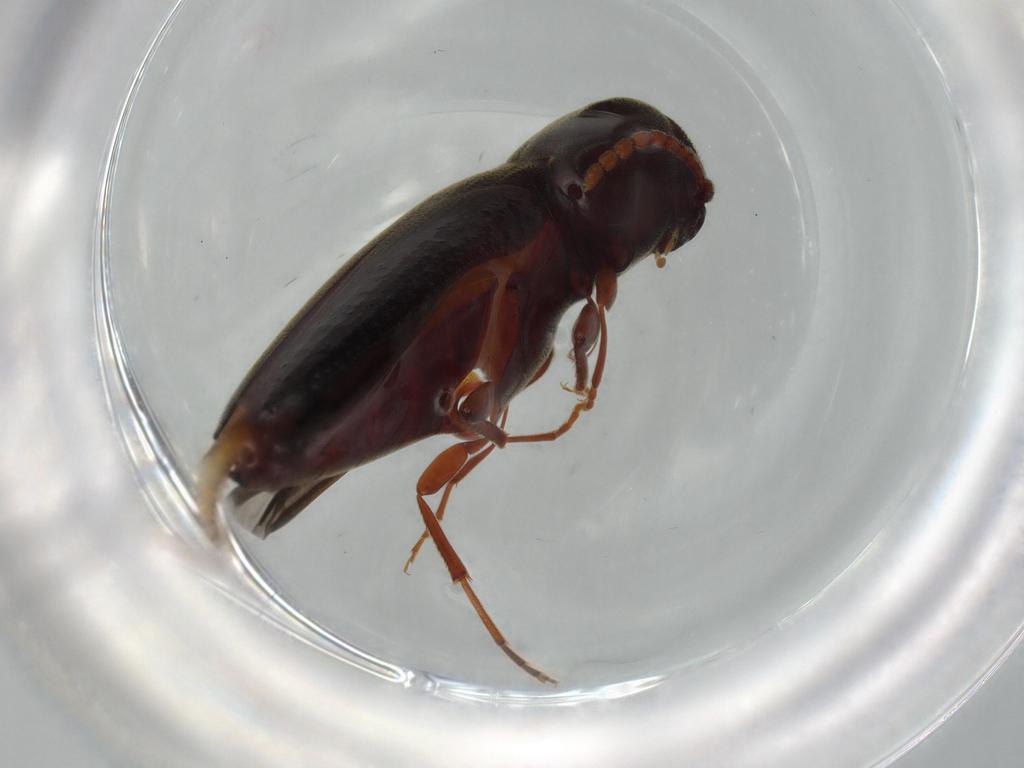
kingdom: Animalia
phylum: Arthropoda
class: Insecta
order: Coleoptera
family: Eucnemidae
